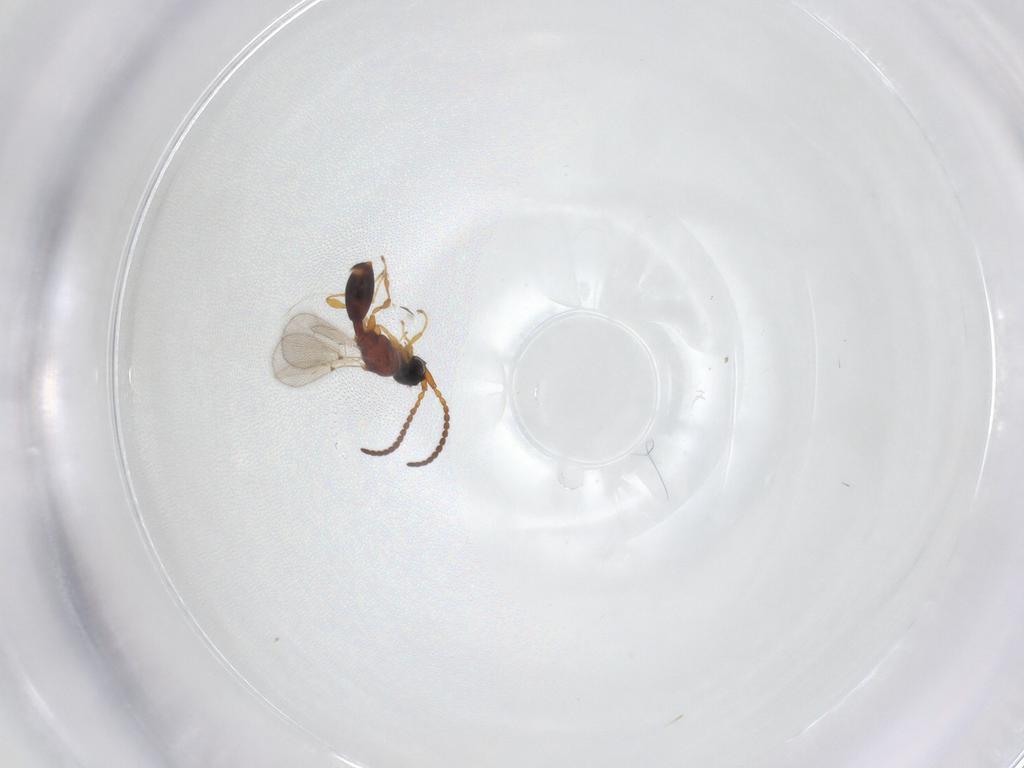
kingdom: Animalia
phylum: Arthropoda
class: Insecta
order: Hymenoptera
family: Diapriidae
